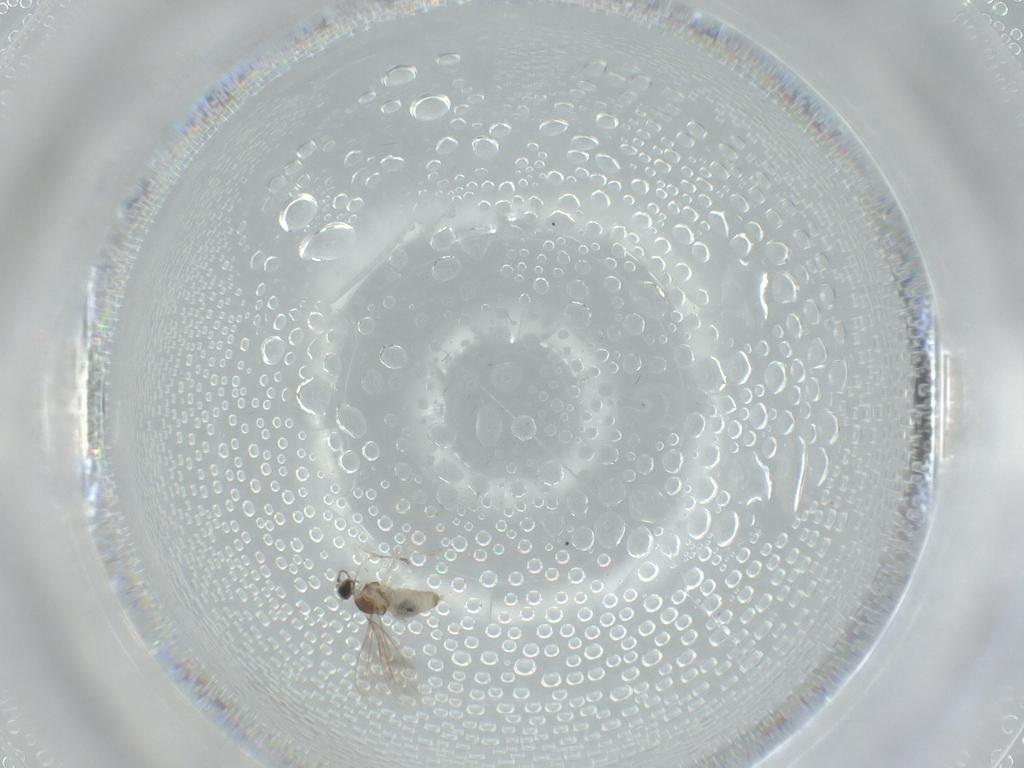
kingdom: Animalia
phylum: Arthropoda
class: Insecta
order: Diptera
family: Cecidomyiidae
